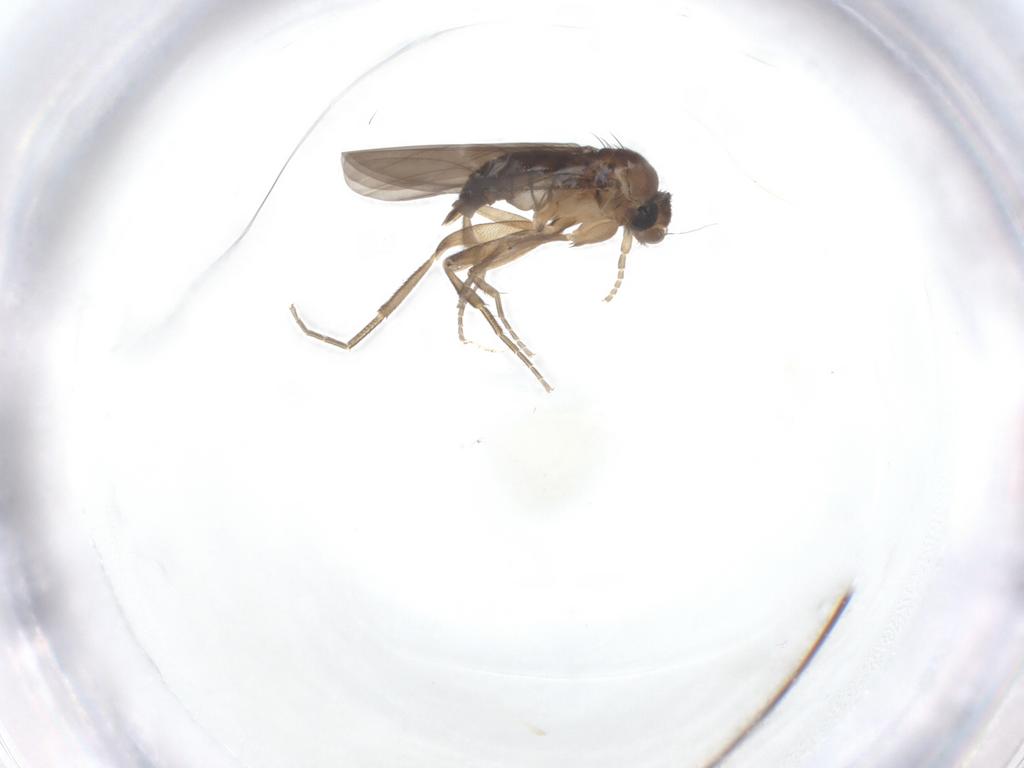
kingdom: Animalia
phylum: Arthropoda
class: Insecta
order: Diptera
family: Phoridae
